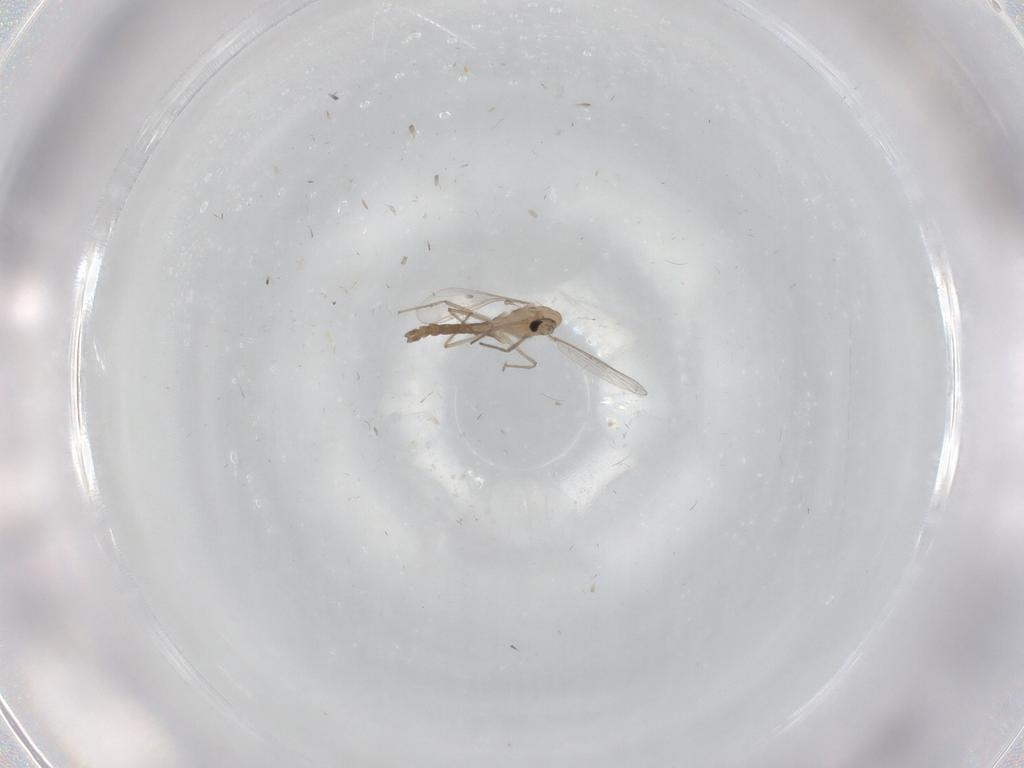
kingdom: Animalia
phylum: Arthropoda
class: Insecta
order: Diptera
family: Chironomidae
